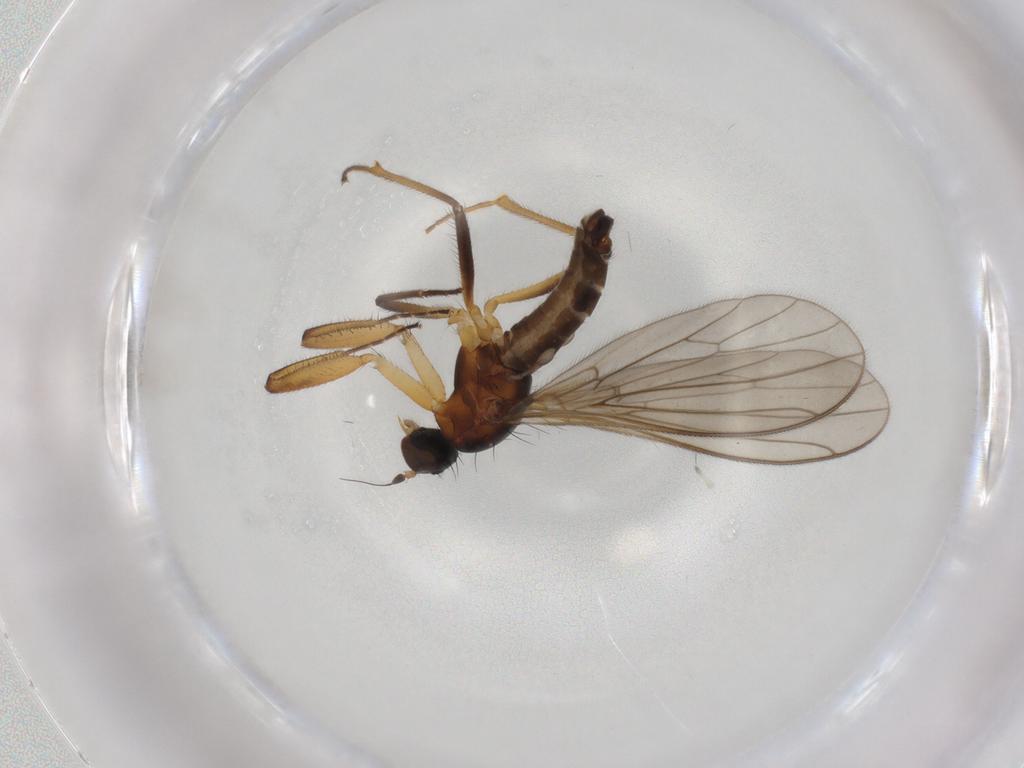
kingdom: Animalia
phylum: Arthropoda
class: Insecta
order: Diptera
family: Empididae
